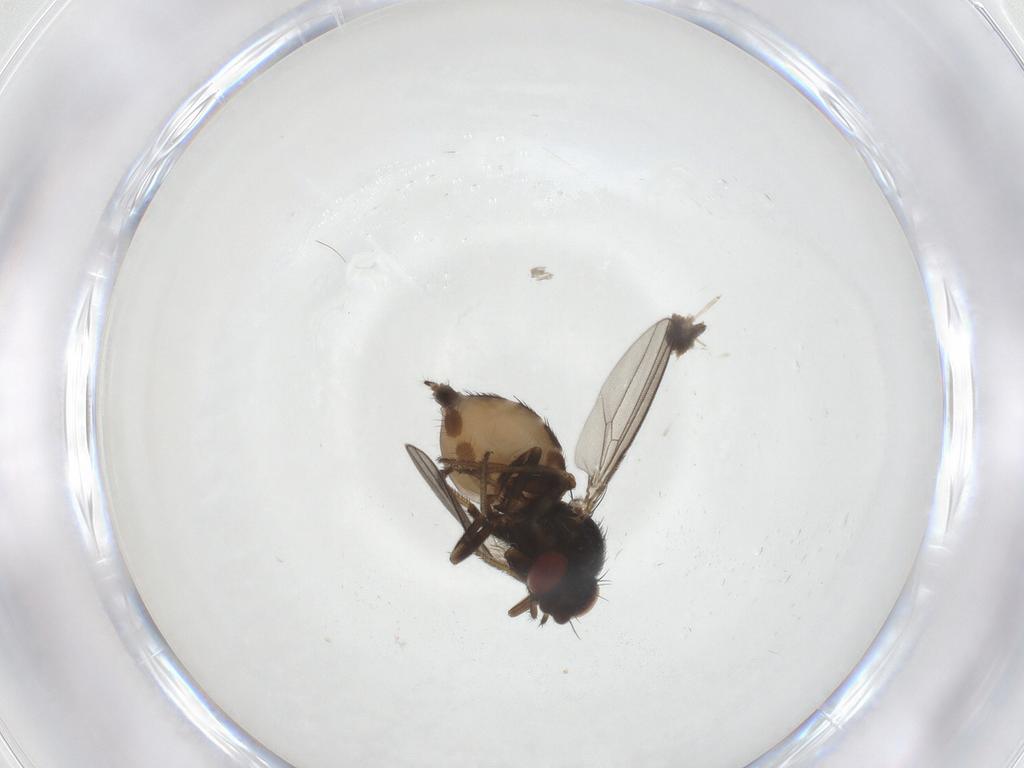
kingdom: Animalia
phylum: Arthropoda
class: Insecta
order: Diptera
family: Milichiidae
